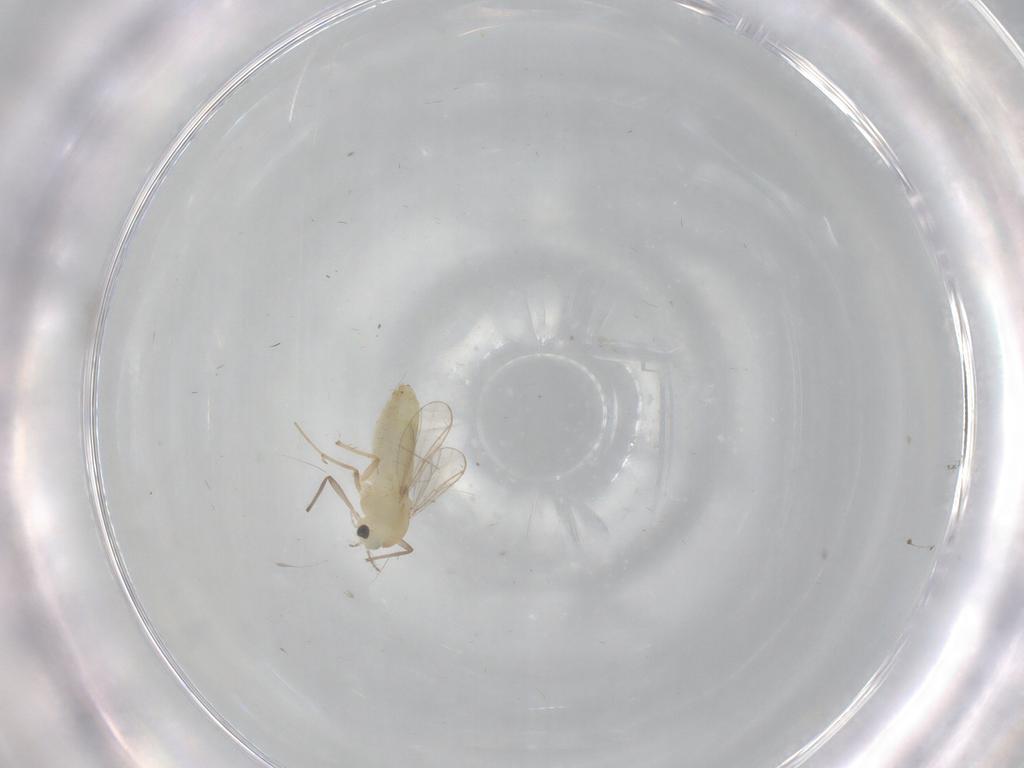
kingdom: Animalia
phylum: Arthropoda
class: Insecta
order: Diptera
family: Chironomidae
